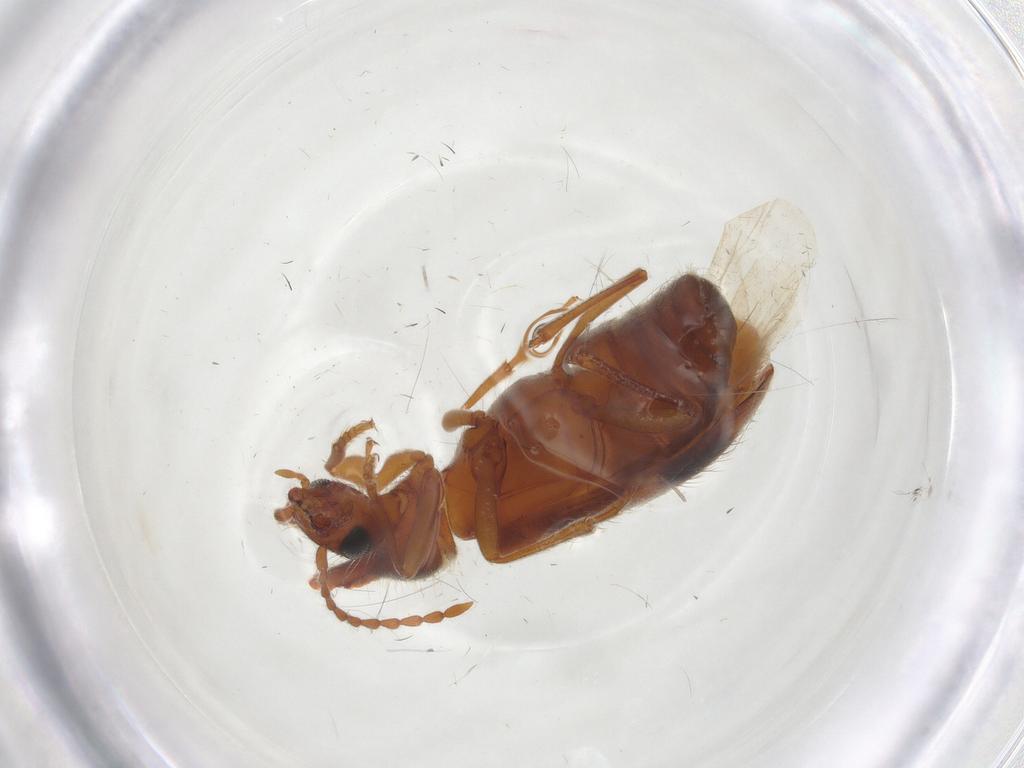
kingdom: Animalia
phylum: Arthropoda
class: Insecta
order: Coleoptera
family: Anthicidae
